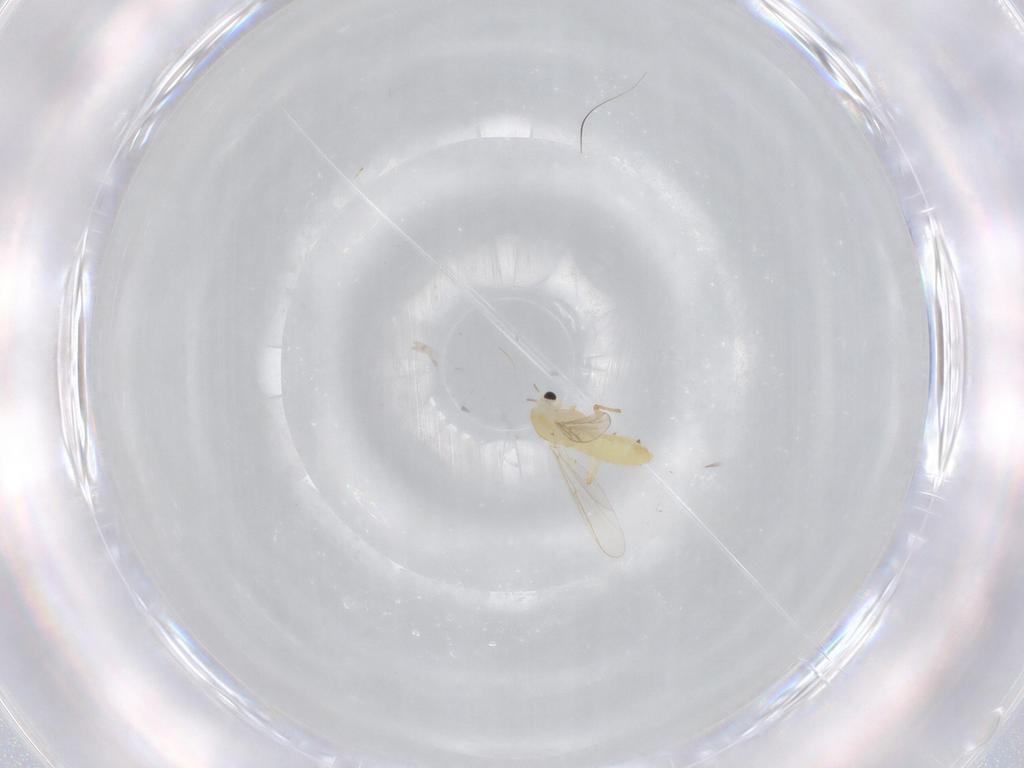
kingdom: Animalia
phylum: Arthropoda
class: Insecta
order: Diptera
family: Chironomidae
